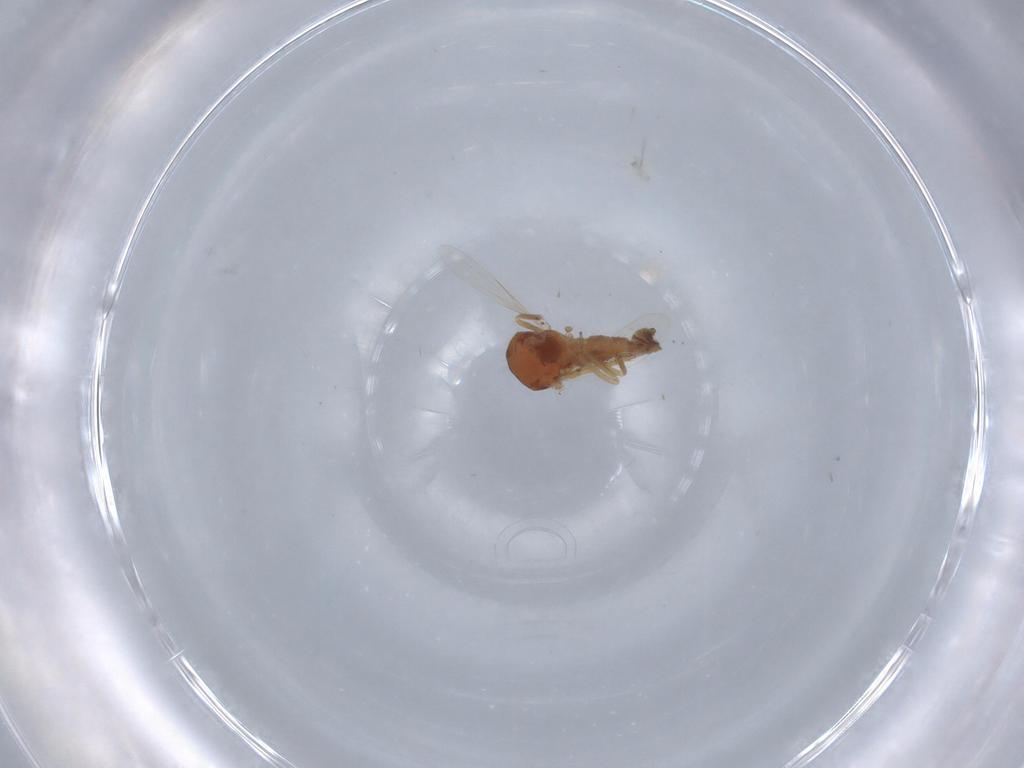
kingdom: Animalia
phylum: Arthropoda
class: Insecta
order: Diptera
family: Ceratopogonidae
